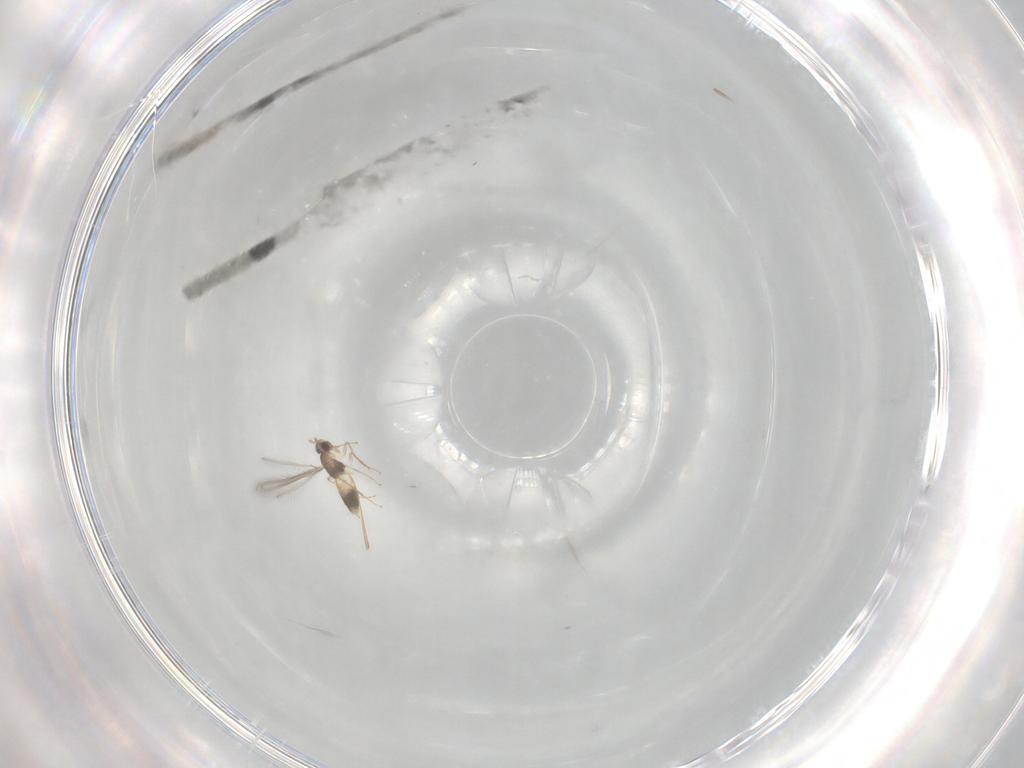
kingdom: Animalia
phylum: Arthropoda
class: Insecta
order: Hymenoptera
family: Mymaridae
